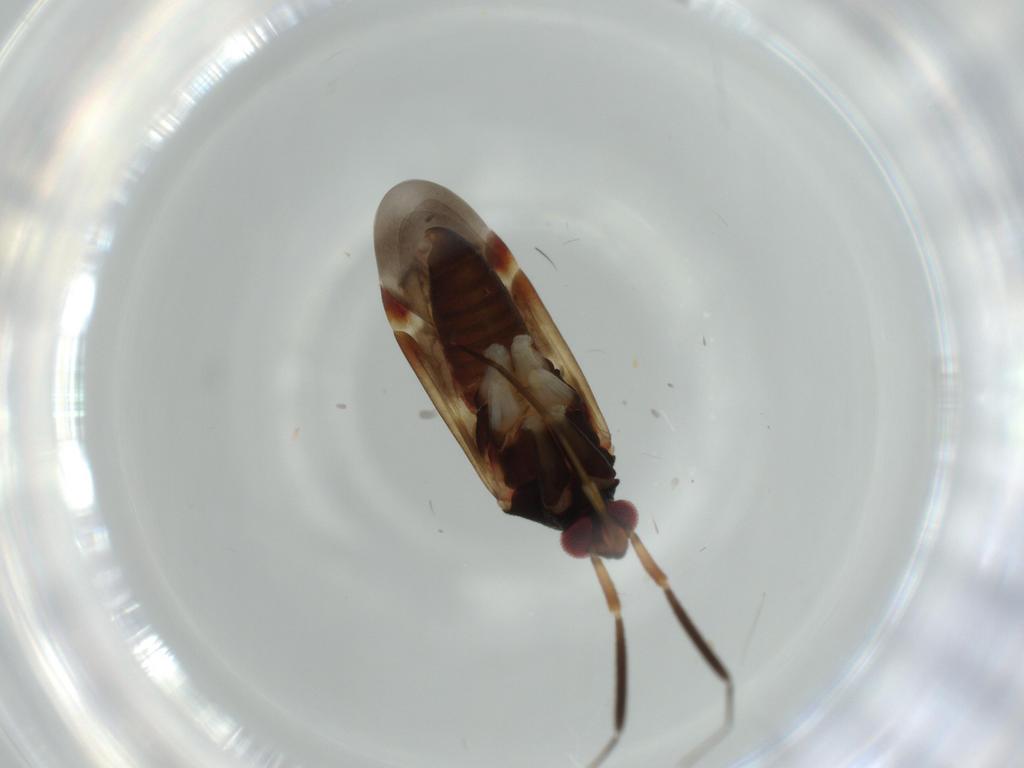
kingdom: Animalia
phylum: Arthropoda
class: Insecta
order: Hemiptera
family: Miridae
